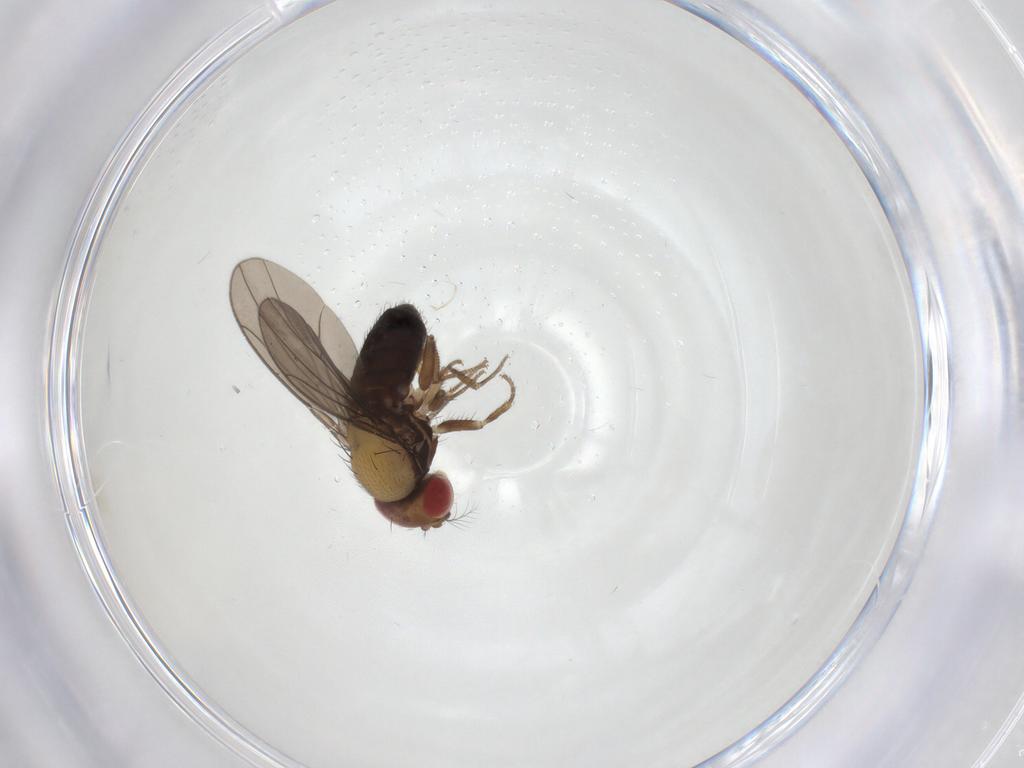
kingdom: Animalia
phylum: Arthropoda
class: Insecta
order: Diptera
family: Drosophilidae
